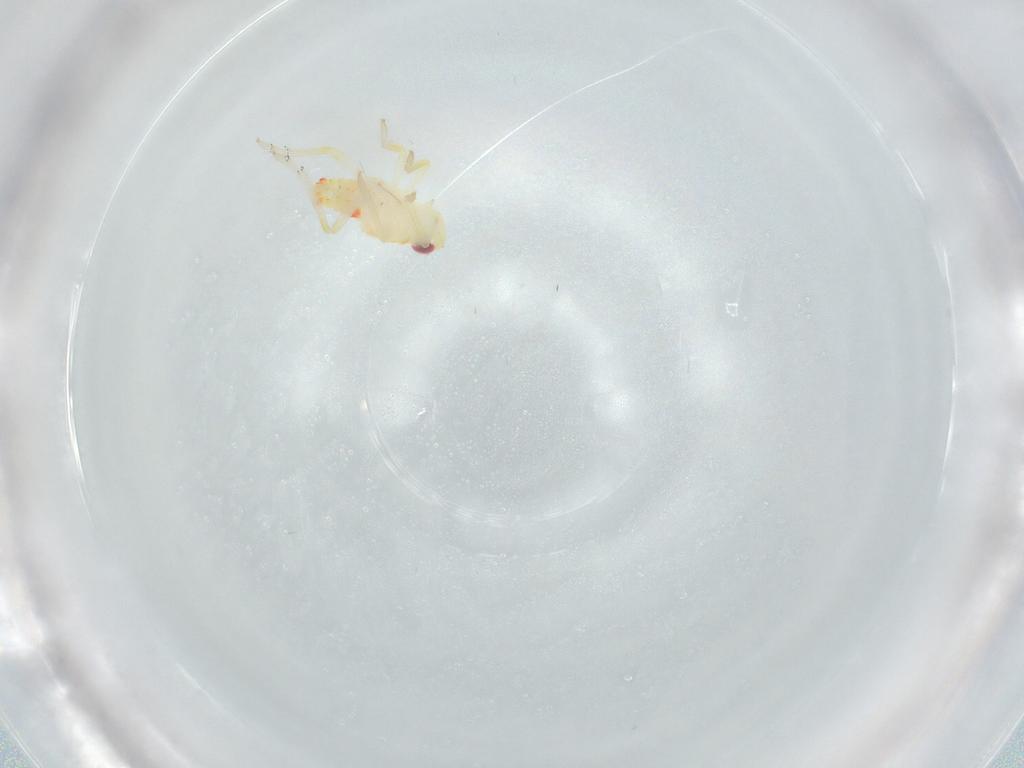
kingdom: Animalia
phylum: Arthropoda
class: Insecta
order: Hemiptera
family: Tropiduchidae
